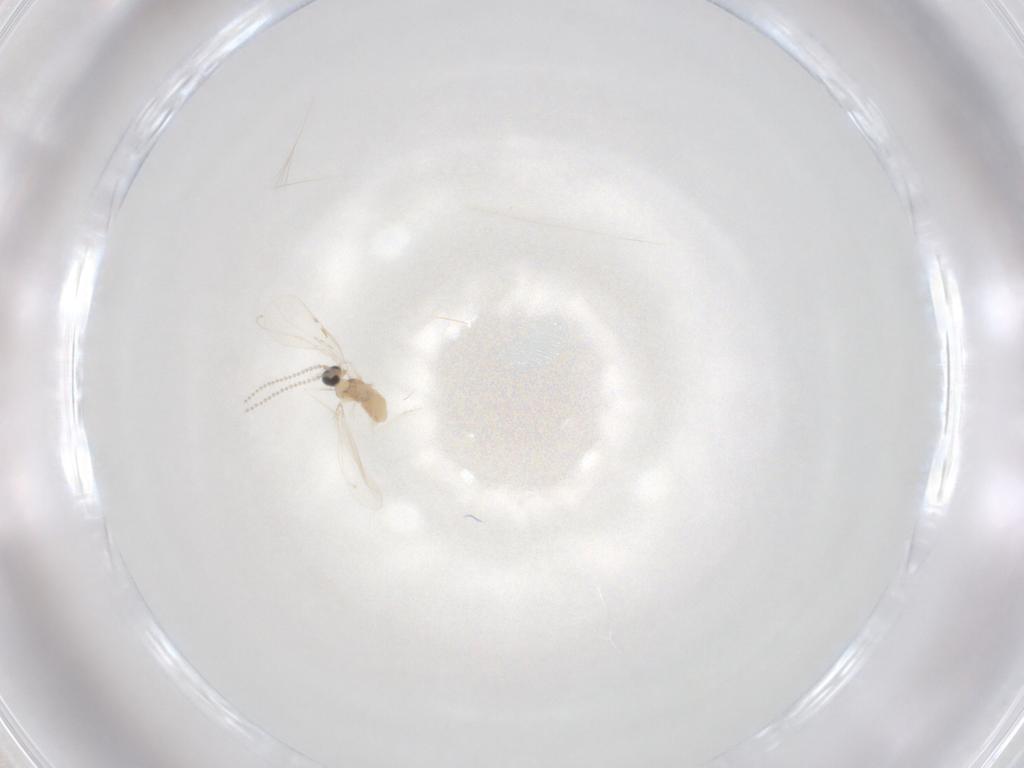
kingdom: Animalia
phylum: Arthropoda
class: Insecta
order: Diptera
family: Cecidomyiidae
